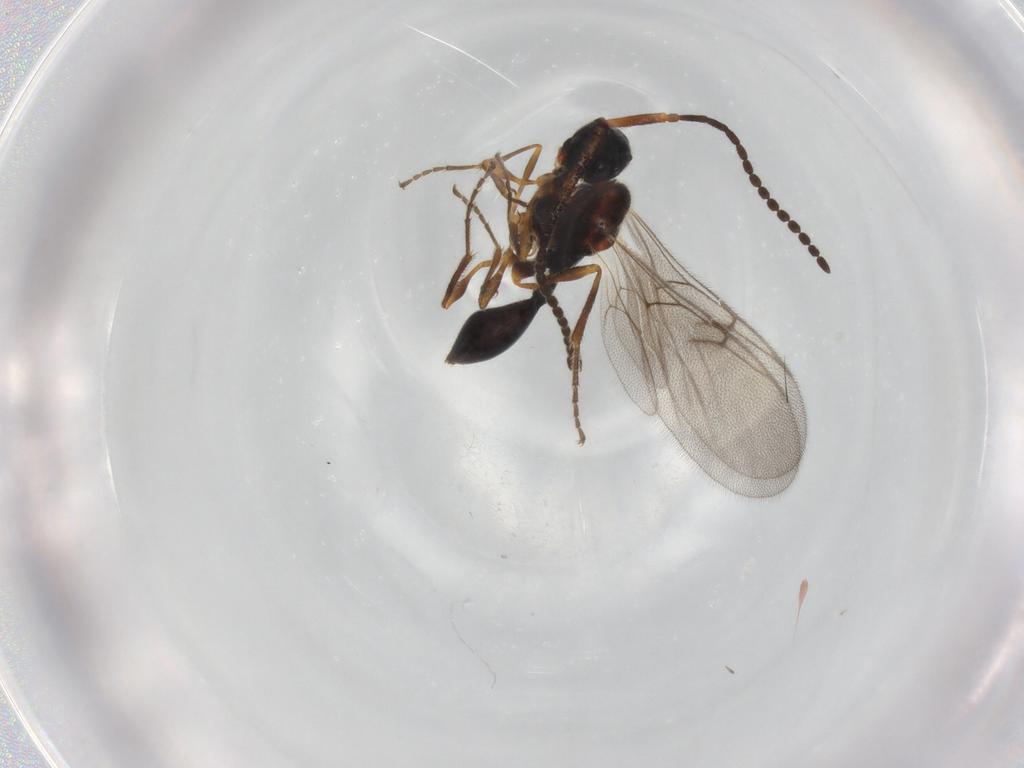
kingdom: Animalia
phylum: Arthropoda
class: Insecta
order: Hymenoptera
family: Diapriidae
